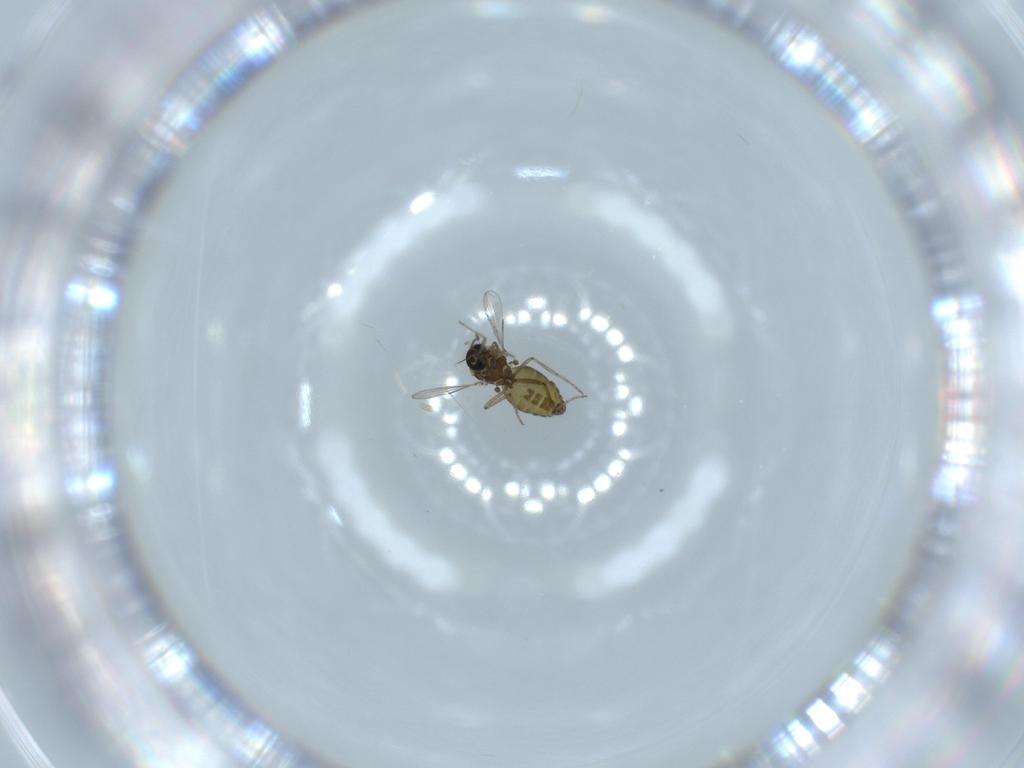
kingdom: Animalia
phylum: Arthropoda
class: Insecta
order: Diptera
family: Ceratopogonidae
